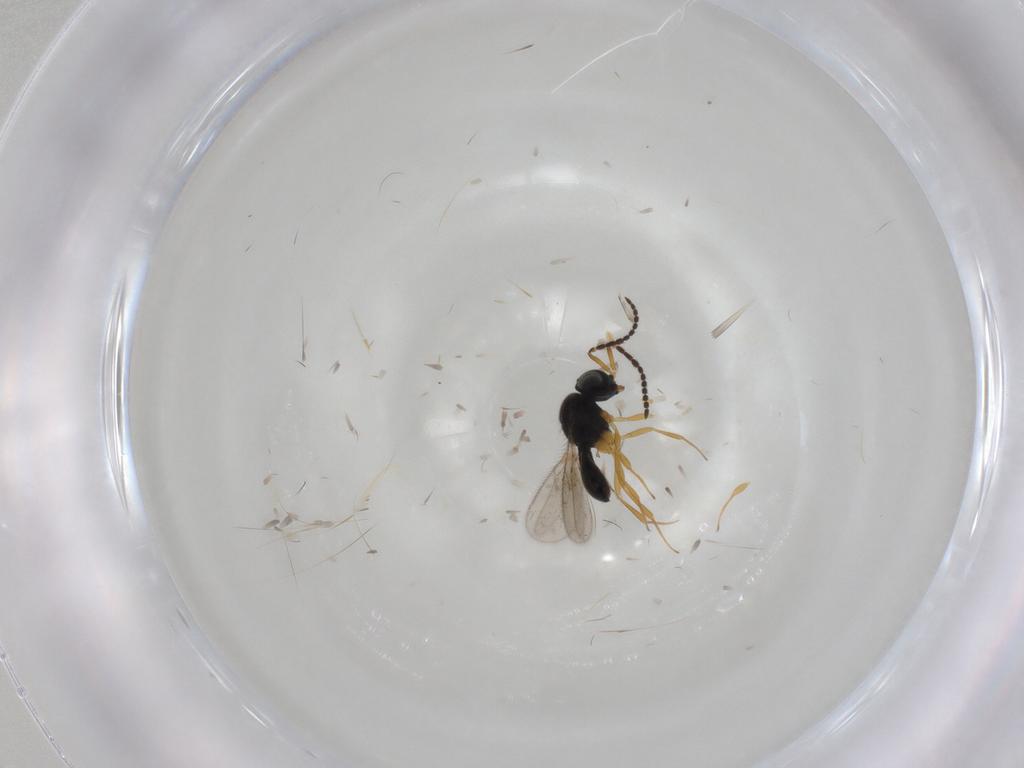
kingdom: Animalia
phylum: Arthropoda
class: Insecta
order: Hymenoptera
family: Scelionidae
